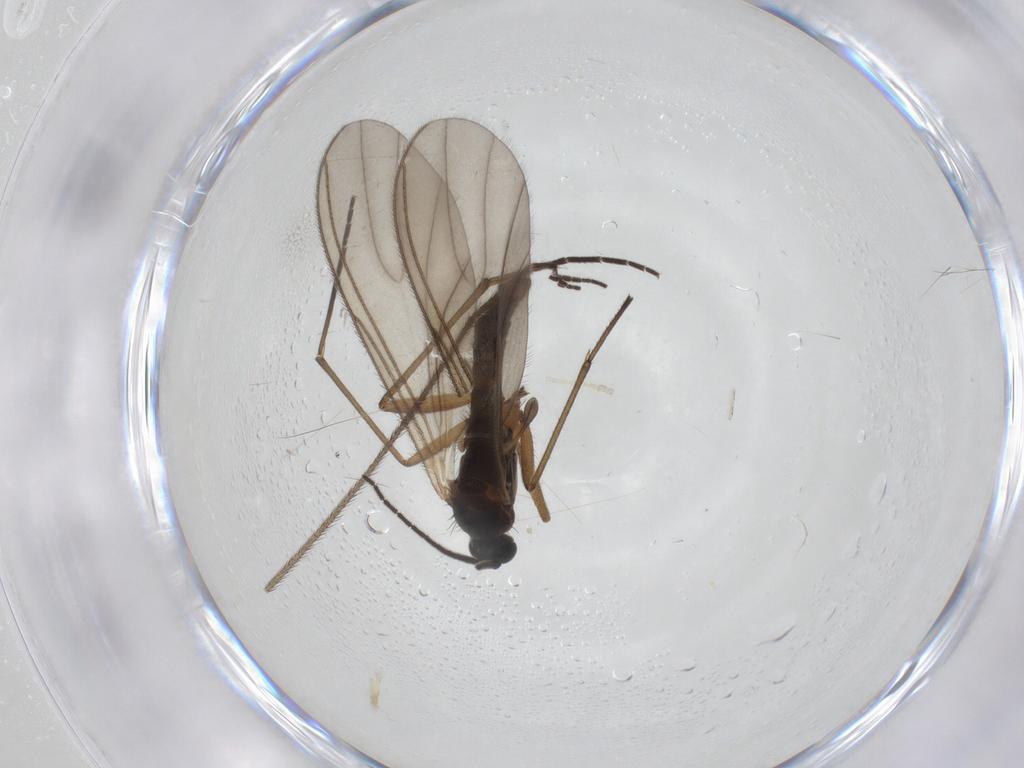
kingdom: Animalia
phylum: Arthropoda
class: Insecta
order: Diptera
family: Sciaridae
